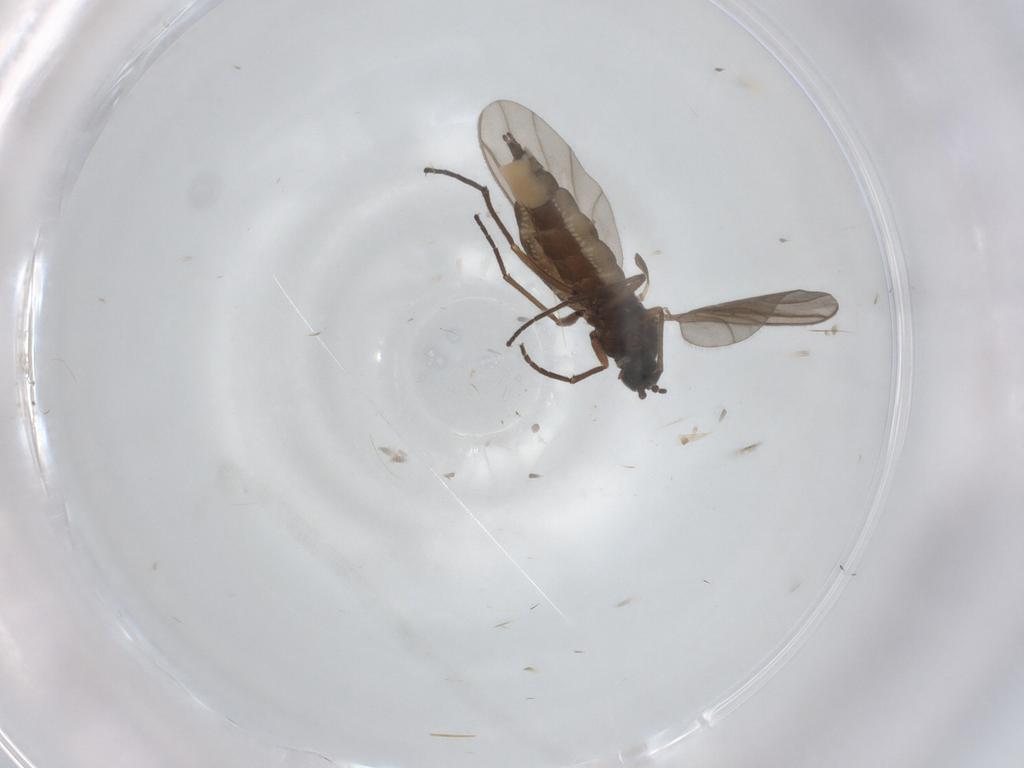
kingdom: Animalia
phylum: Arthropoda
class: Insecta
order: Diptera
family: Sciaridae
